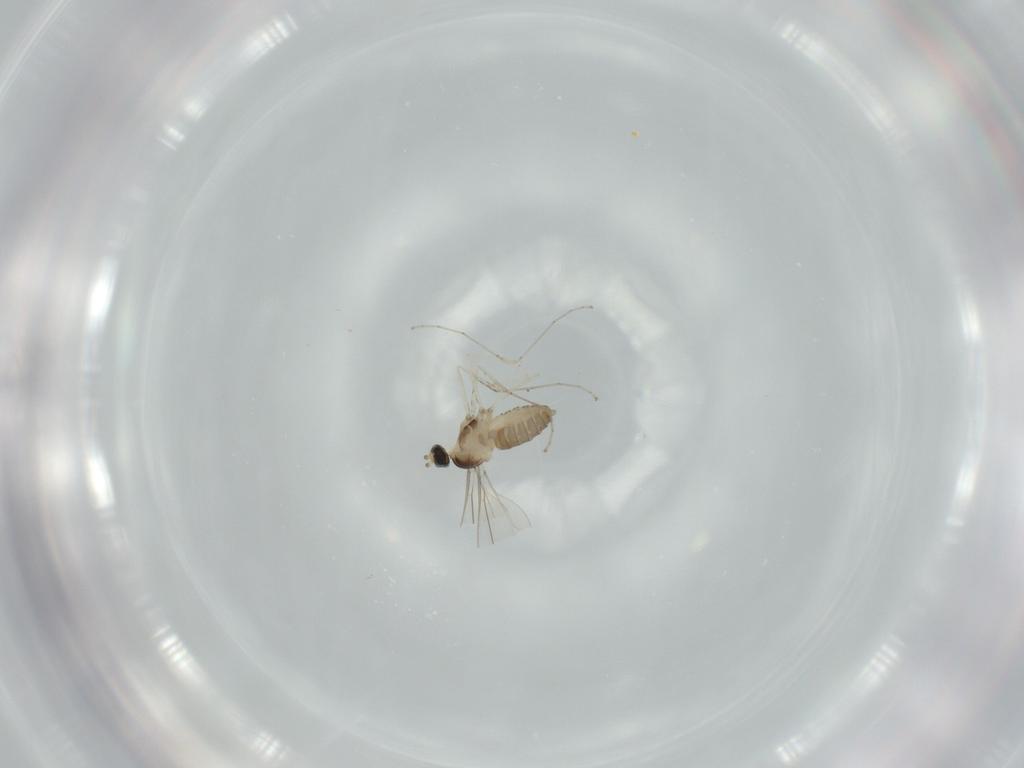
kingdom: Animalia
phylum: Arthropoda
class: Insecta
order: Diptera
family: Cecidomyiidae
